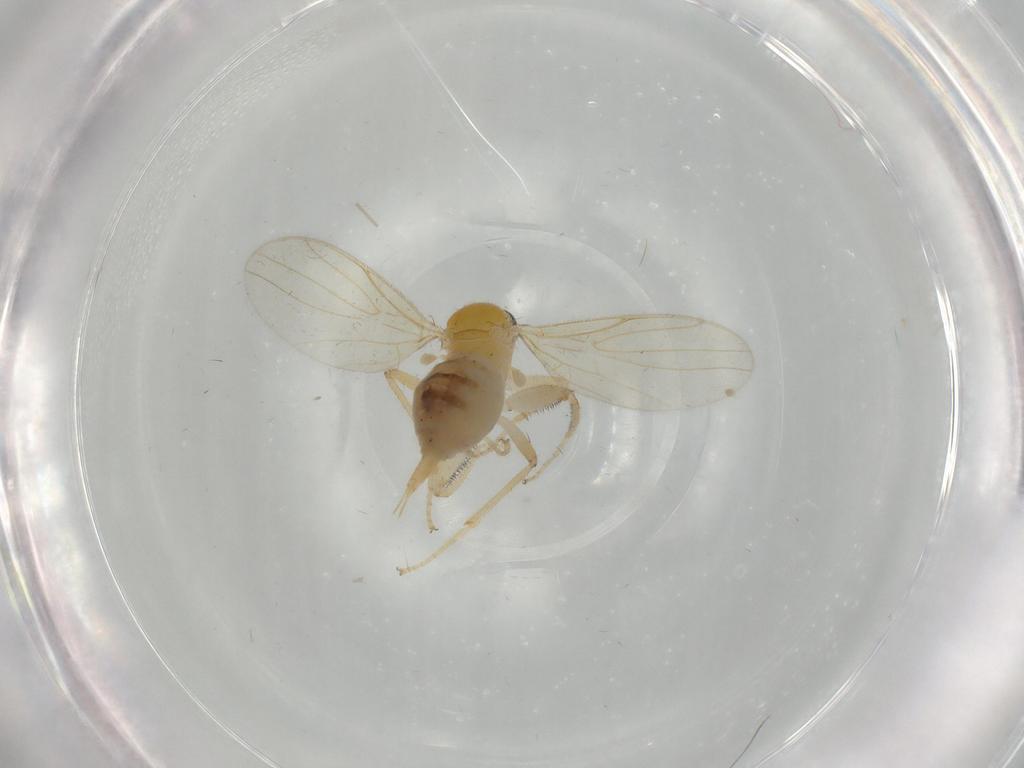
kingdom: Animalia
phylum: Arthropoda
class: Insecta
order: Diptera
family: Cecidomyiidae
